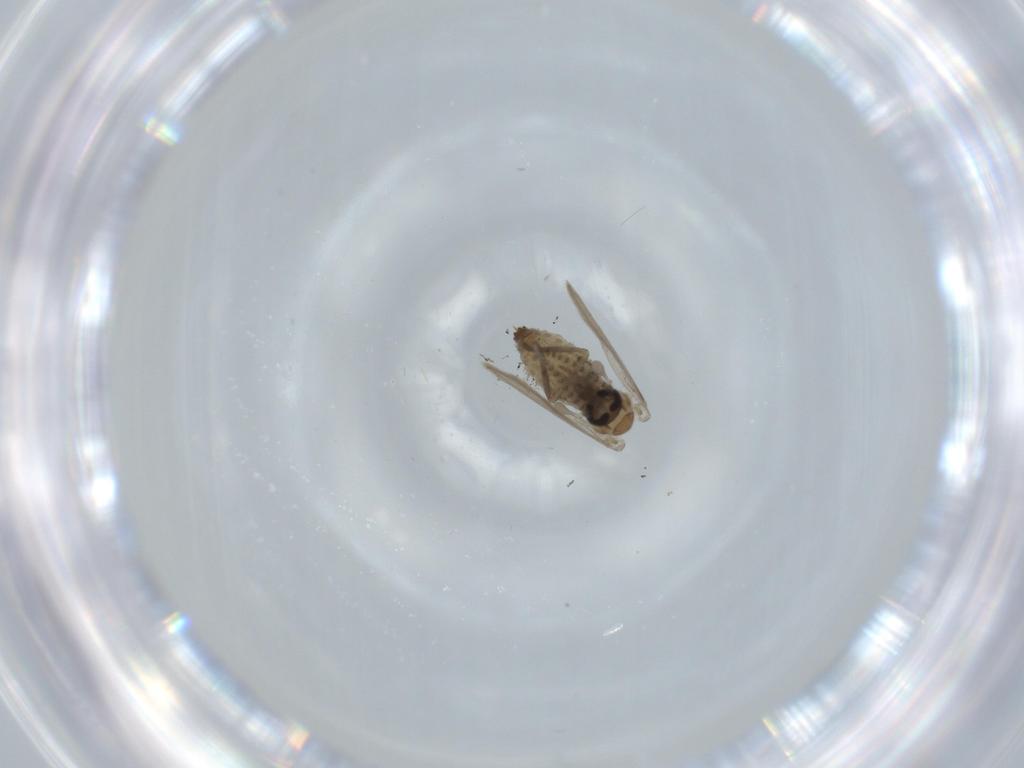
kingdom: Animalia
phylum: Arthropoda
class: Insecta
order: Diptera
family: Psychodidae
